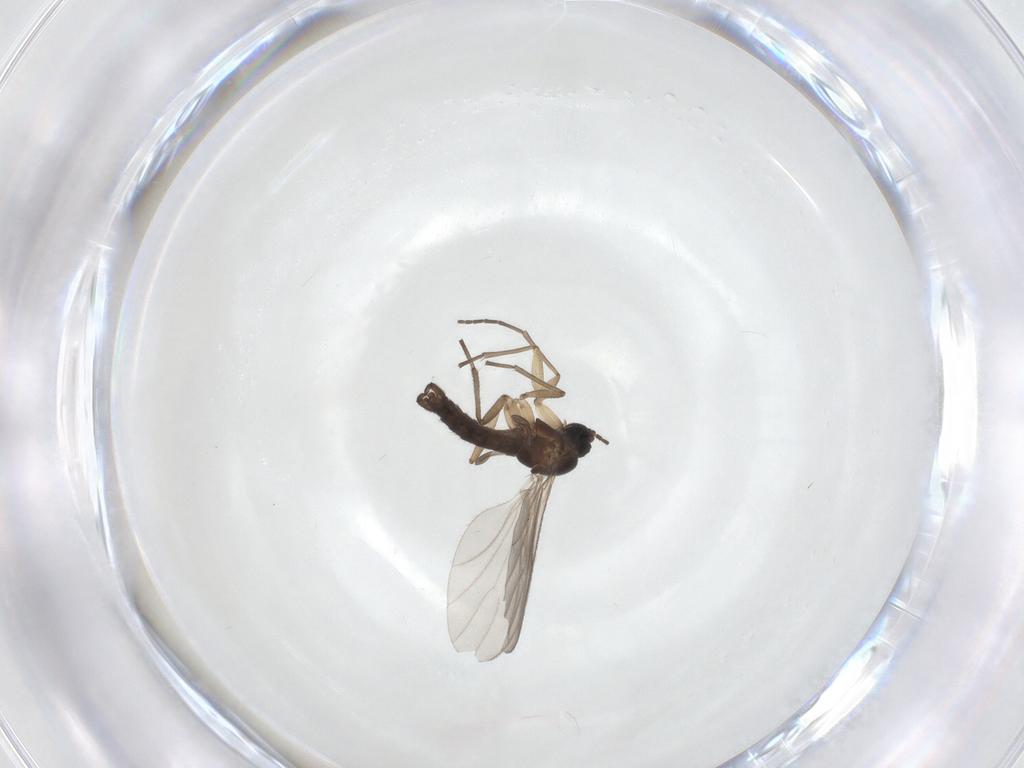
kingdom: Animalia
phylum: Arthropoda
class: Insecta
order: Diptera
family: Sciaridae
